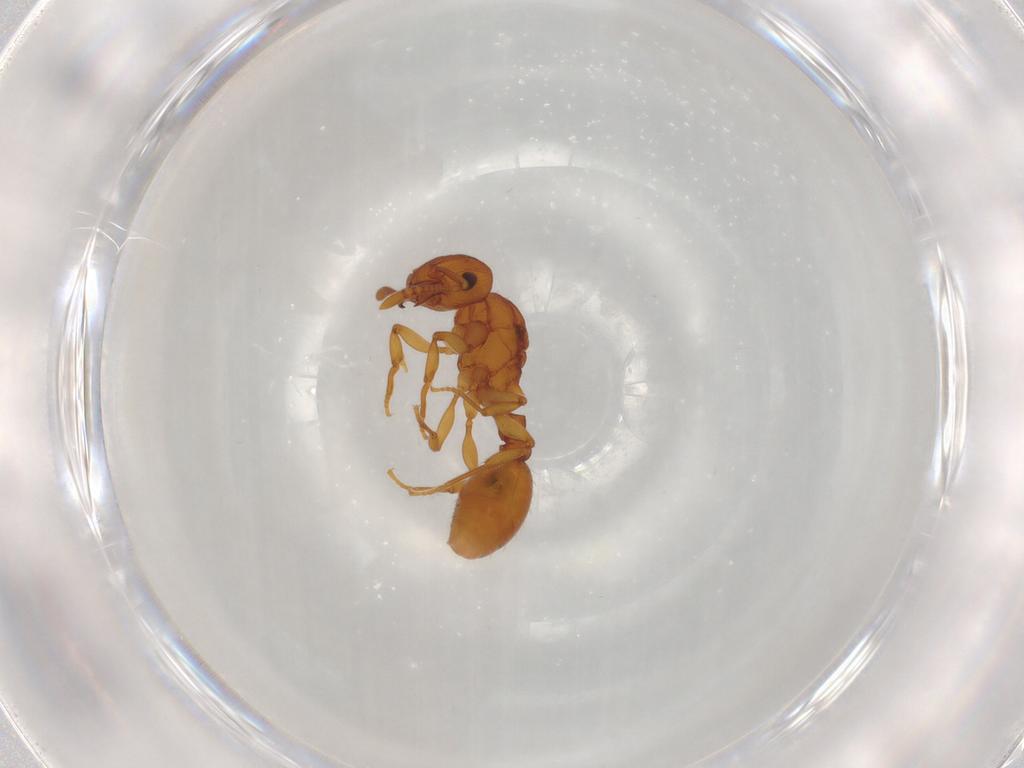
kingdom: Animalia
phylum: Arthropoda
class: Insecta
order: Hymenoptera
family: Formicidae
